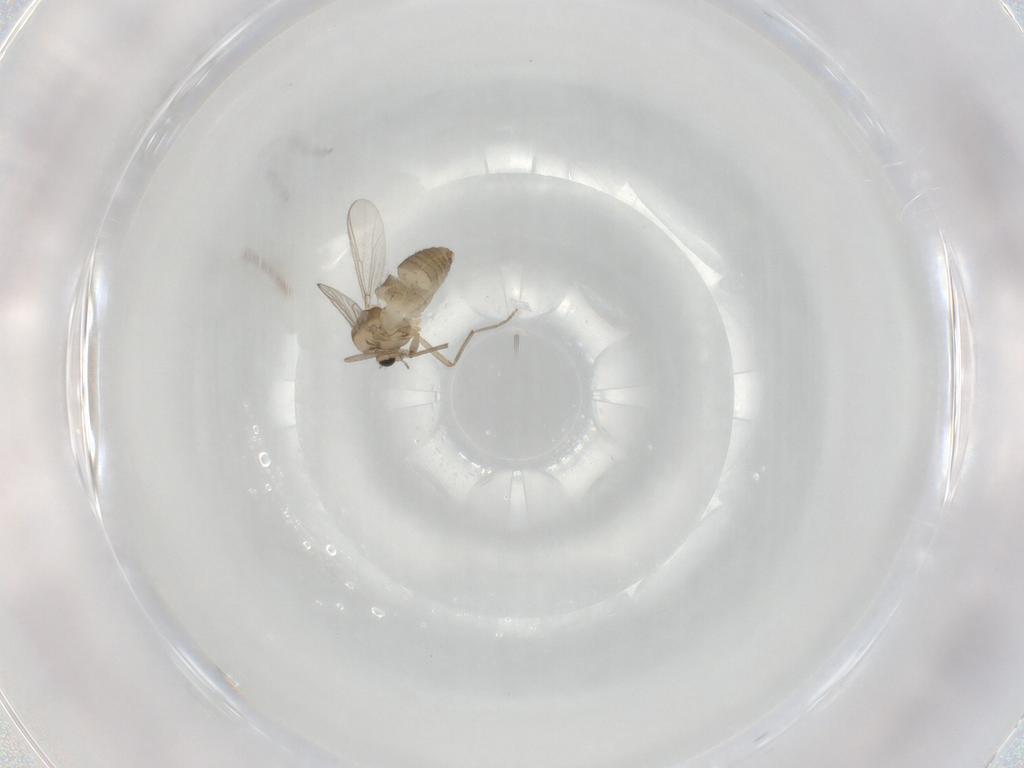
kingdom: Animalia
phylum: Arthropoda
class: Insecta
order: Diptera
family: Chironomidae
